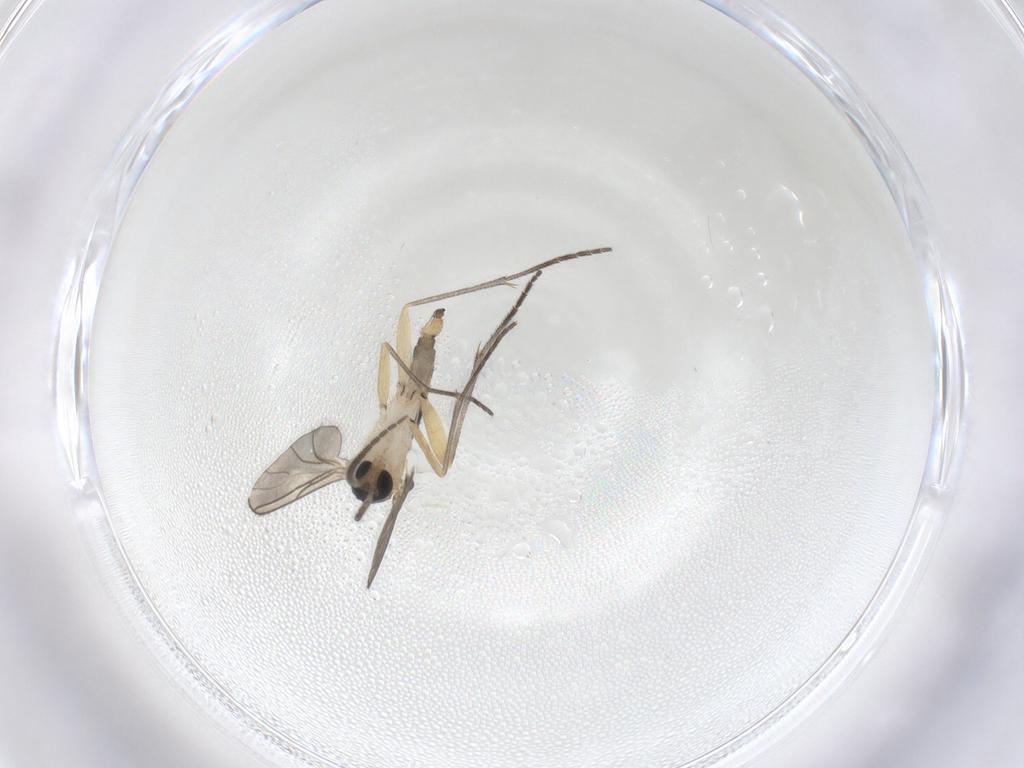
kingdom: Animalia
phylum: Arthropoda
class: Insecta
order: Diptera
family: Sciaridae
